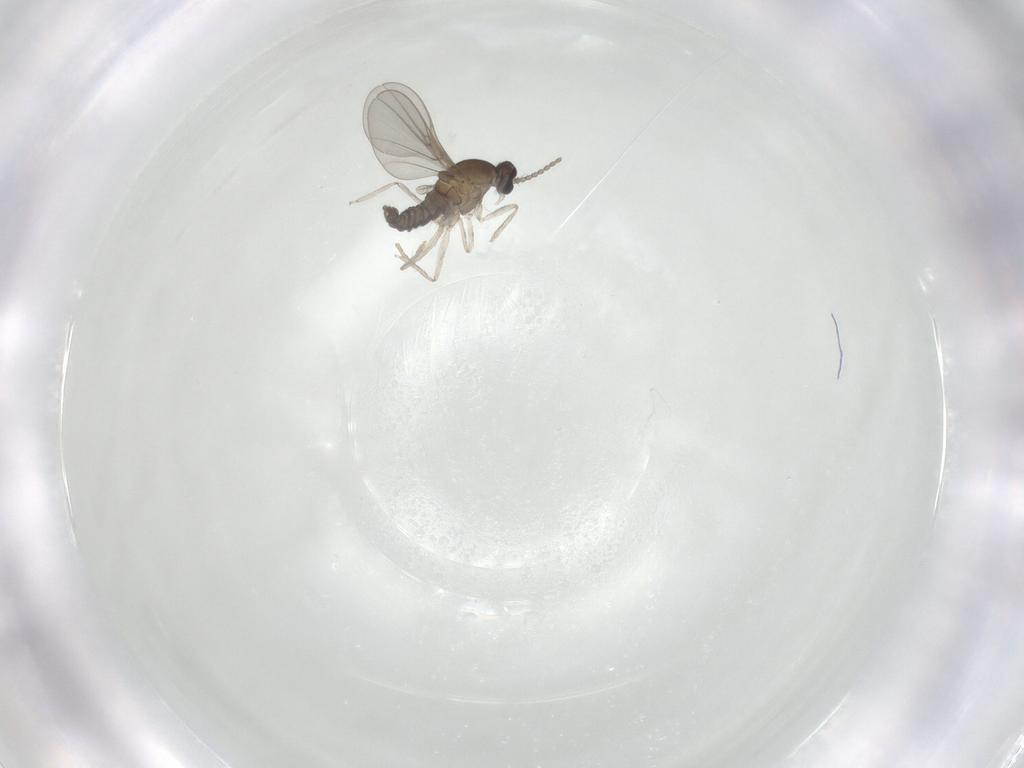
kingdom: Animalia
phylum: Arthropoda
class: Insecta
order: Diptera
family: Cecidomyiidae
